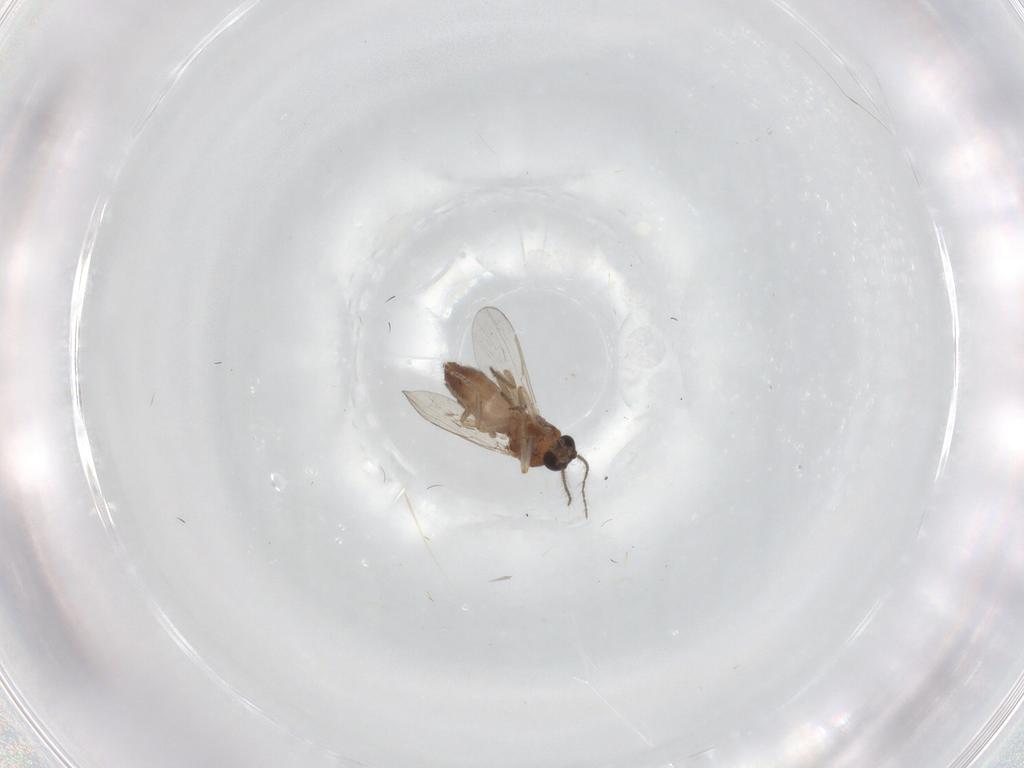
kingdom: Animalia
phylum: Arthropoda
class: Insecta
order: Diptera
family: Ceratopogonidae
